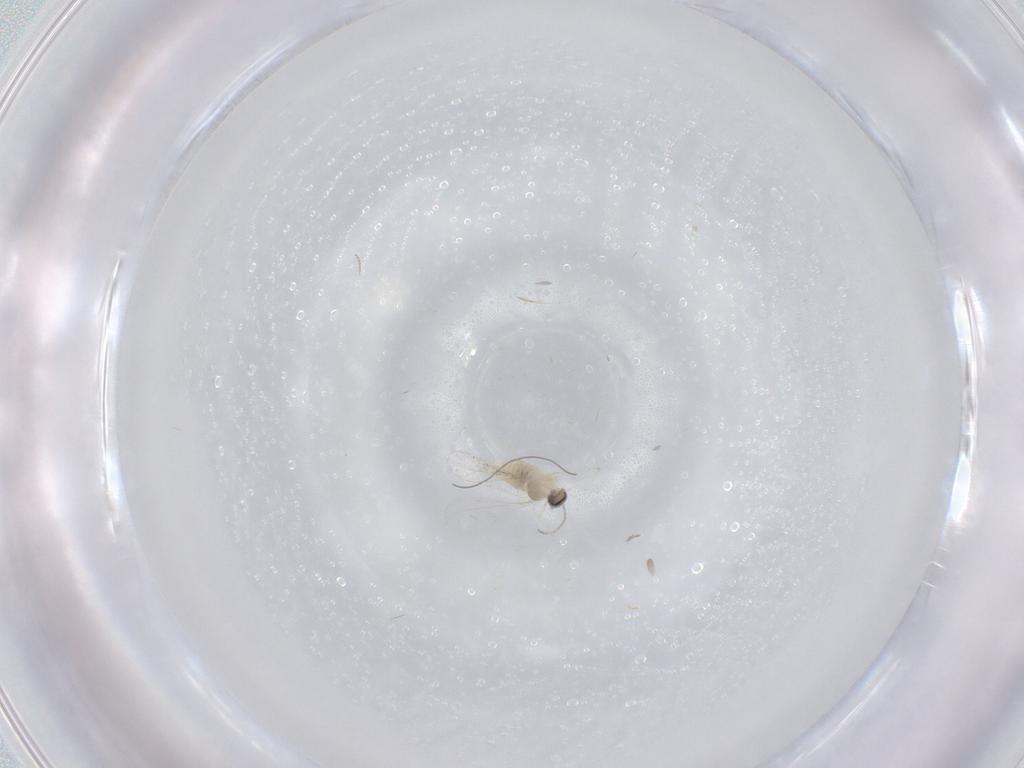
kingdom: Animalia
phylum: Arthropoda
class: Insecta
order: Diptera
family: Cecidomyiidae
